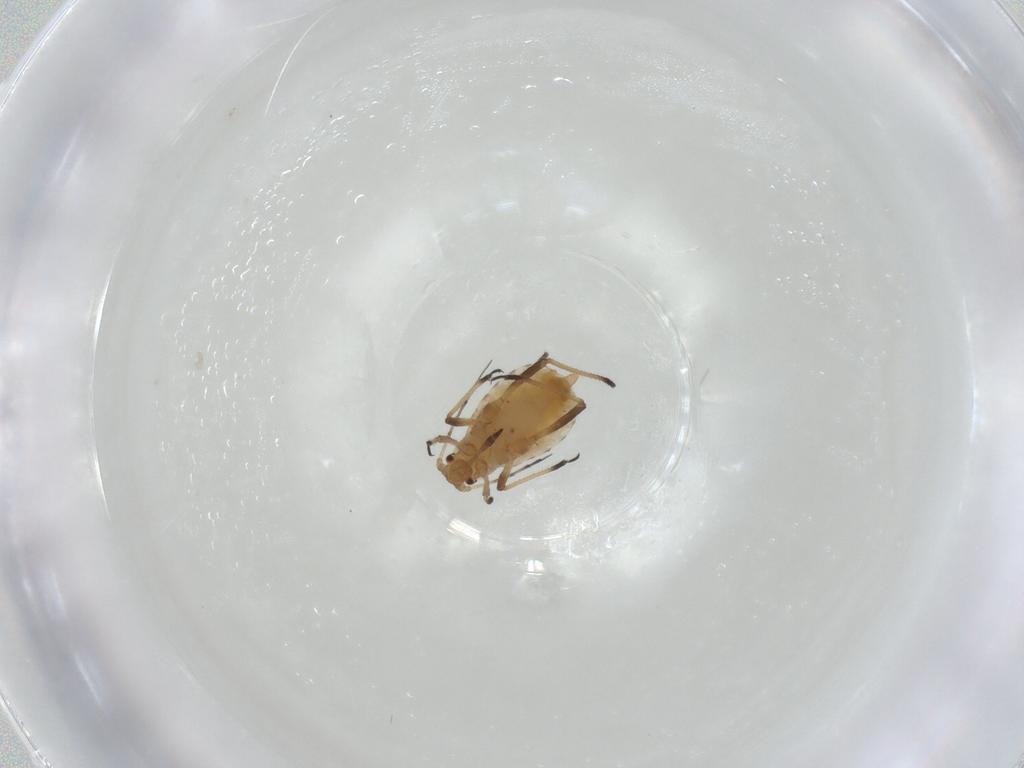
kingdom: Animalia
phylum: Arthropoda
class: Insecta
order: Hemiptera
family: Aphididae
